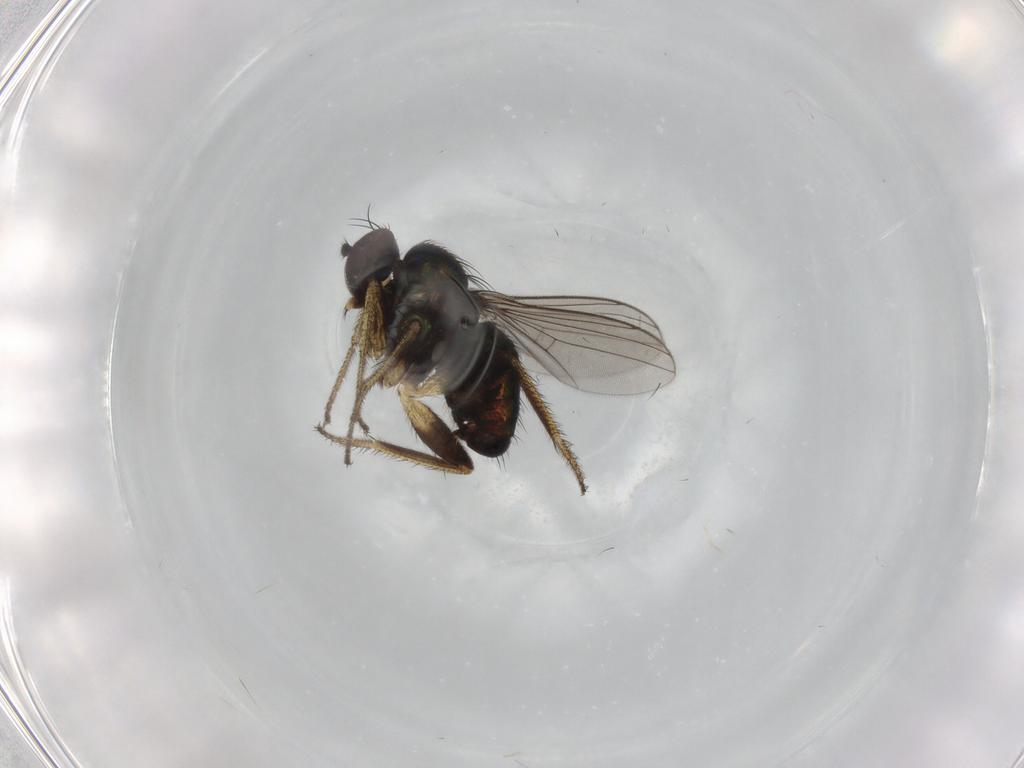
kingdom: Animalia
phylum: Arthropoda
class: Insecta
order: Diptera
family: Dolichopodidae
